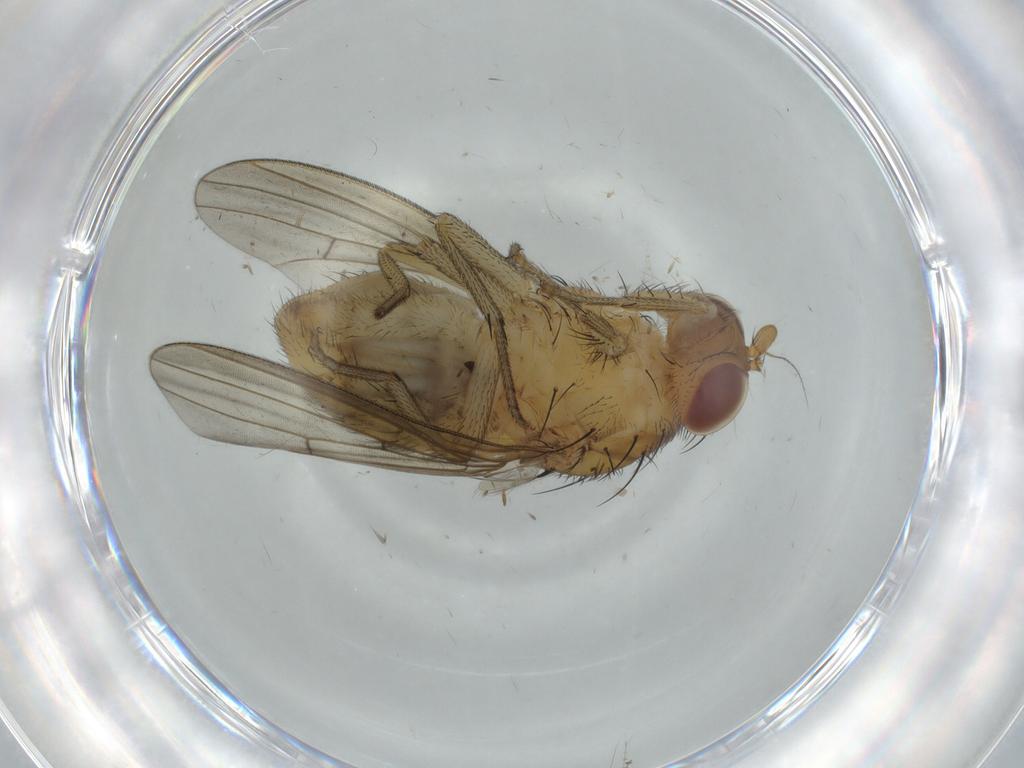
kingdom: Animalia
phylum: Arthropoda
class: Insecta
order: Diptera
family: Lauxaniidae
